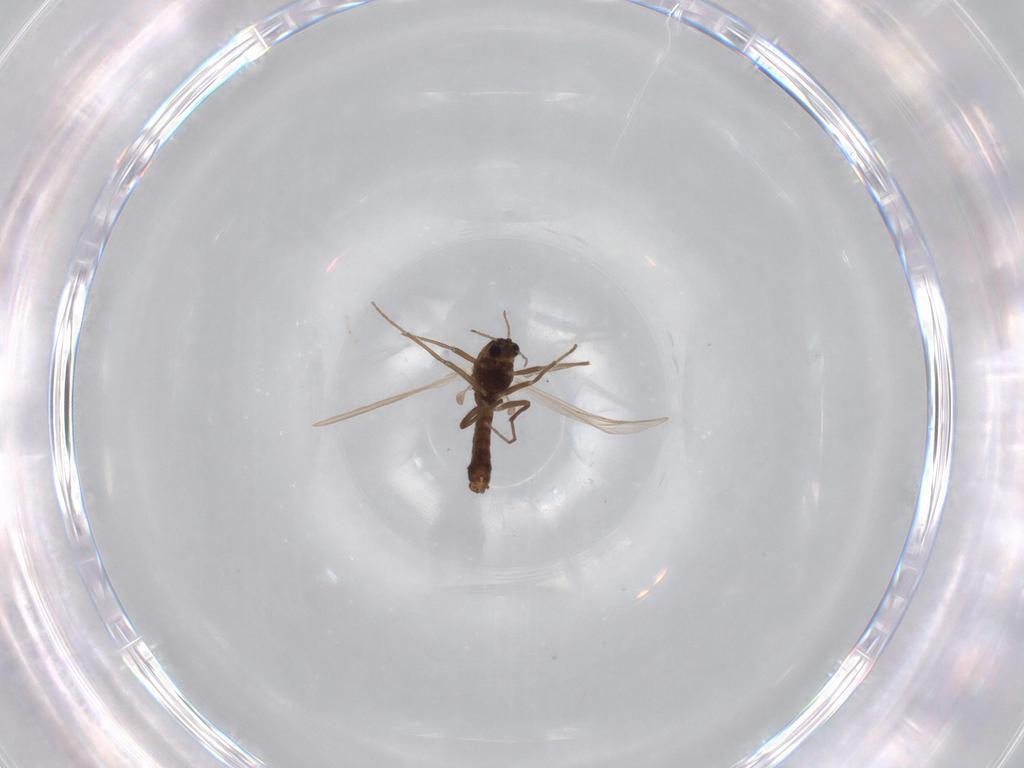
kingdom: Animalia
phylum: Arthropoda
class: Insecta
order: Diptera
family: Chironomidae
